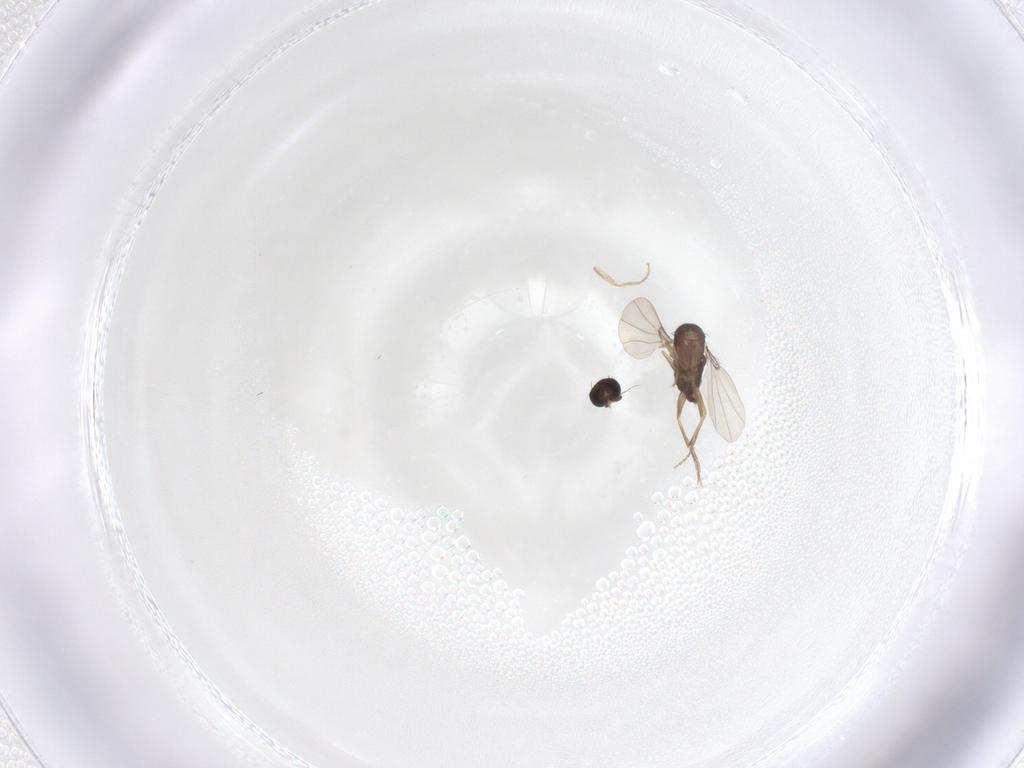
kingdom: Animalia
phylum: Arthropoda
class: Insecta
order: Diptera
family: Phoridae
